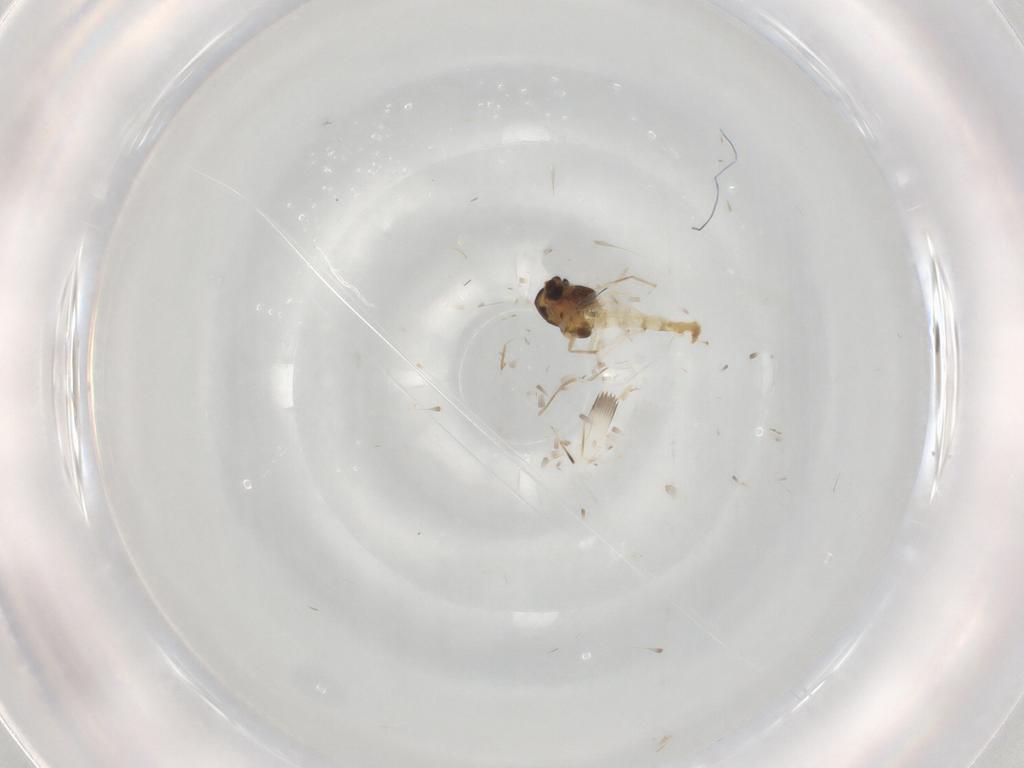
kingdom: Animalia
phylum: Arthropoda
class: Insecta
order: Diptera
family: Chironomidae
